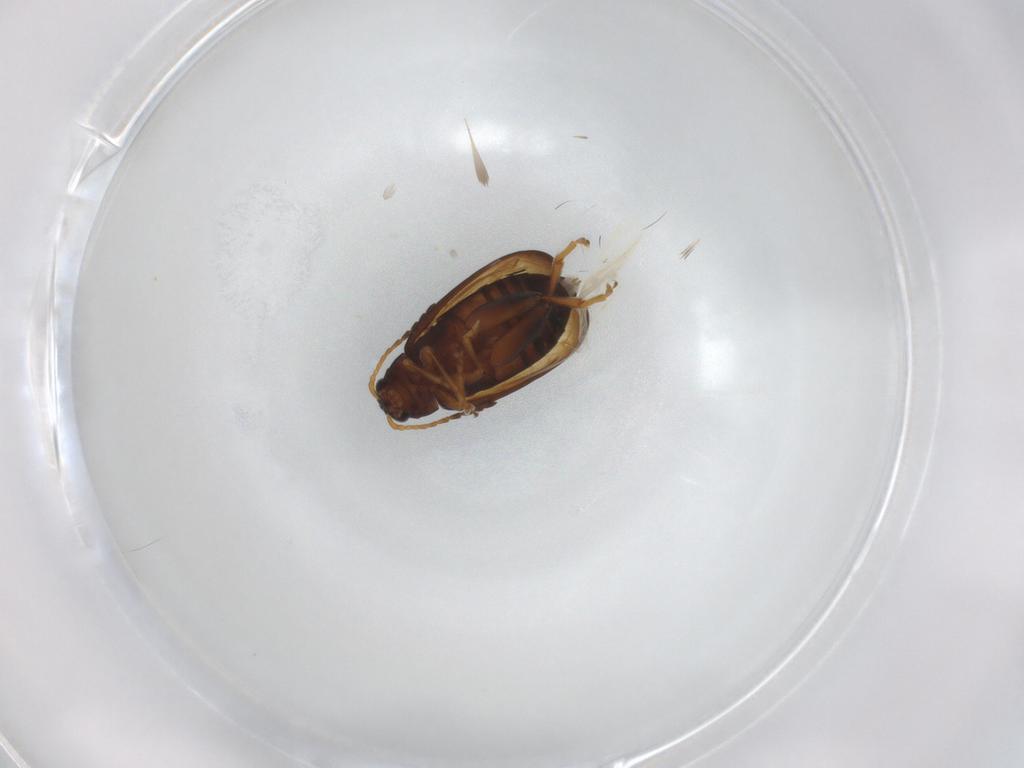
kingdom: Animalia
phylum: Arthropoda
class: Insecta
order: Coleoptera
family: Chrysomelidae
